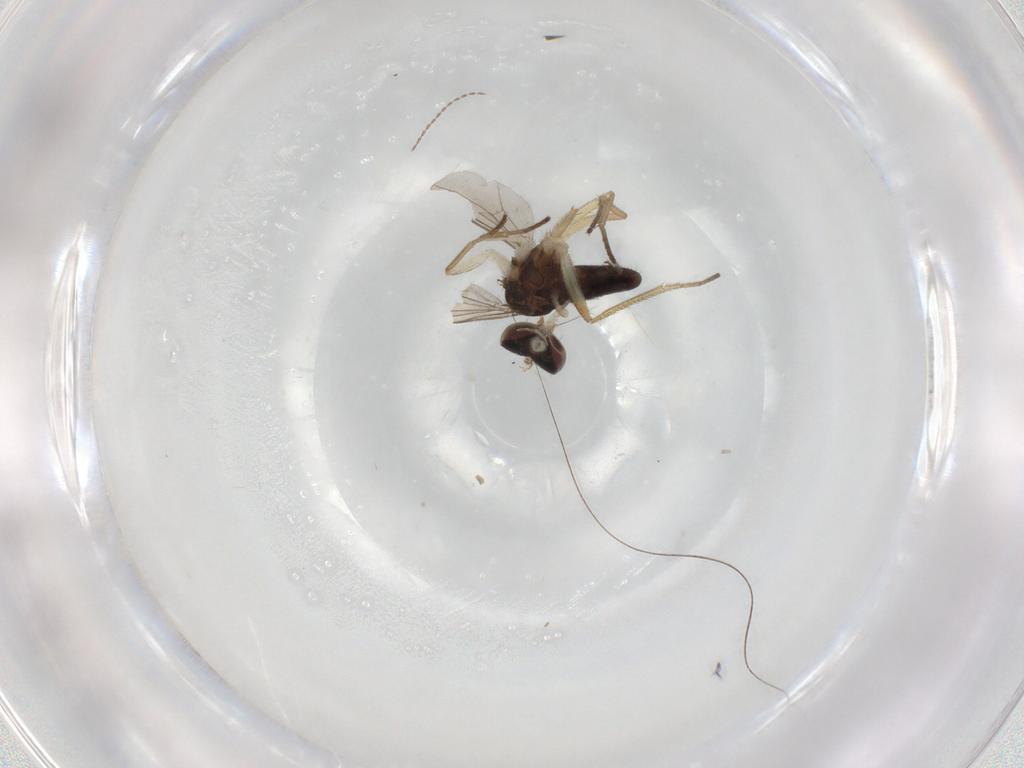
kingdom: Animalia
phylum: Arthropoda
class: Insecta
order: Diptera
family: Dolichopodidae
